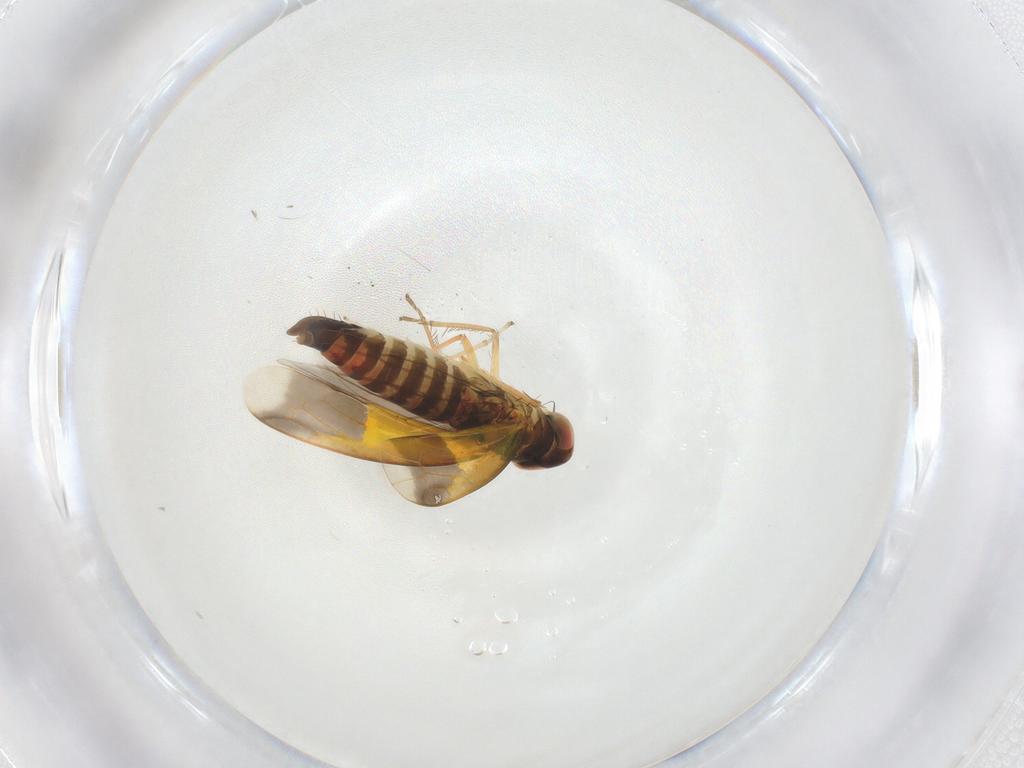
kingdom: Animalia
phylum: Arthropoda
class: Insecta
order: Hemiptera
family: Cicadellidae
